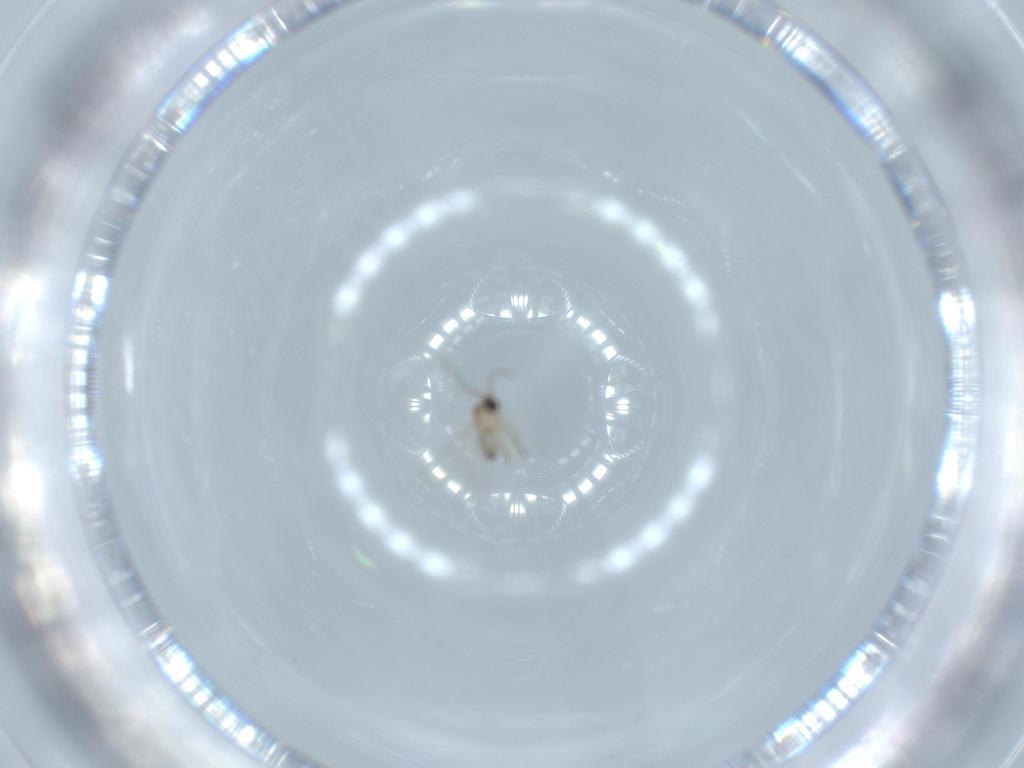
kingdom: Animalia
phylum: Arthropoda
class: Insecta
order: Diptera
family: Cecidomyiidae
